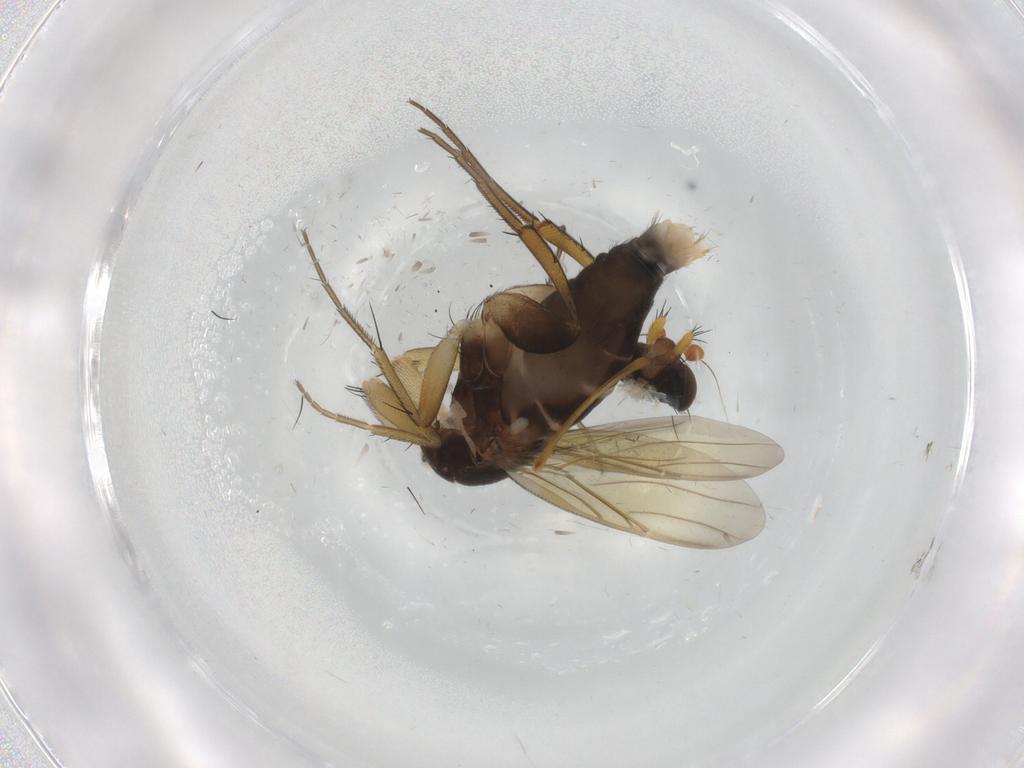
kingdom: Animalia
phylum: Arthropoda
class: Insecta
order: Diptera
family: Phoridae
